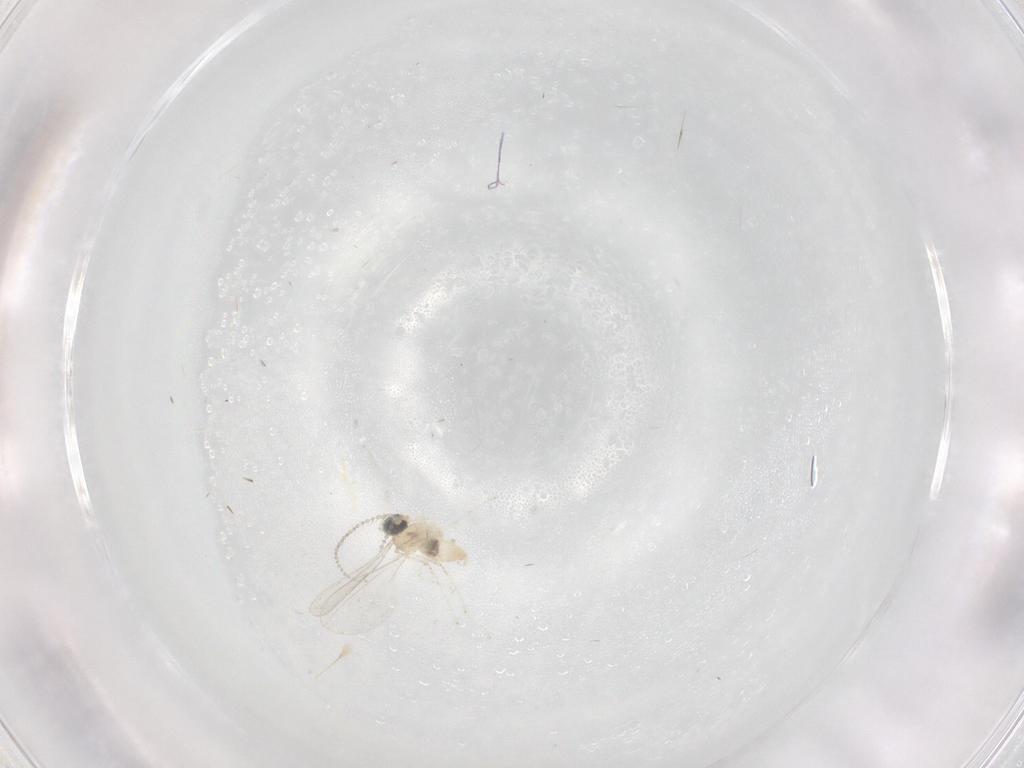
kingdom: Animalia
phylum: Arthropoda
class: Insecta
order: Diptera
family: Cecidomyiidae
